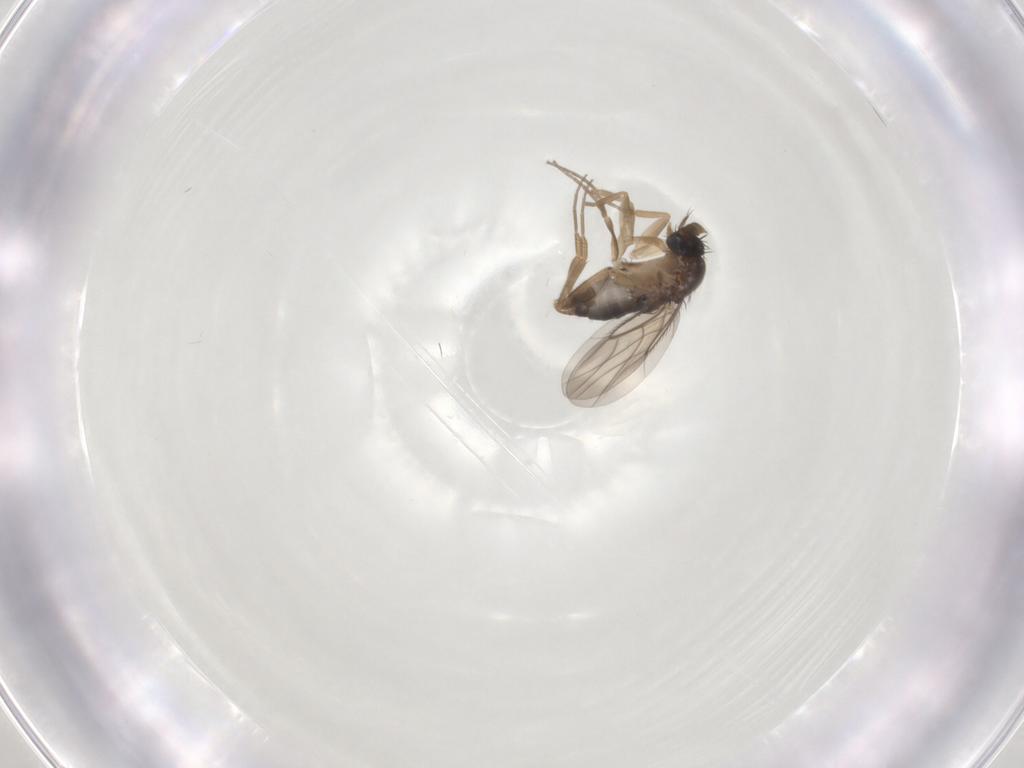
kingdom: Animalia
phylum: Arthropoda
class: Insecta
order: Diptera
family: Phoridae
